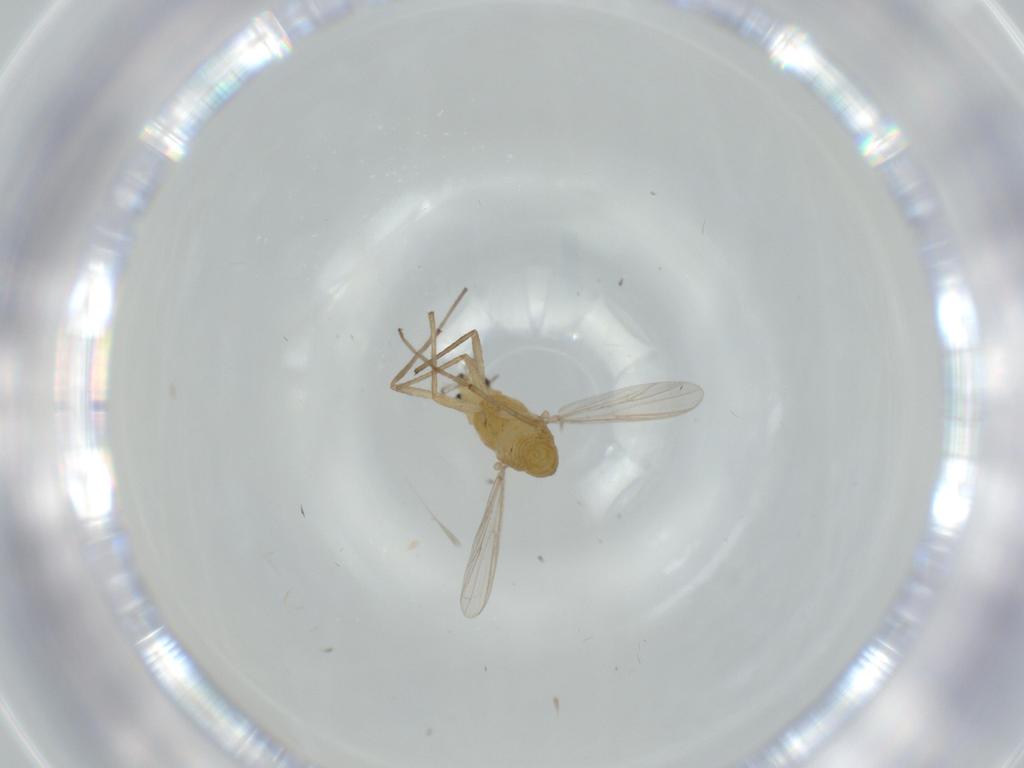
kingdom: Animalia
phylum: Arthropoda
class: Insecta
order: Diptera
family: Chironomidae
